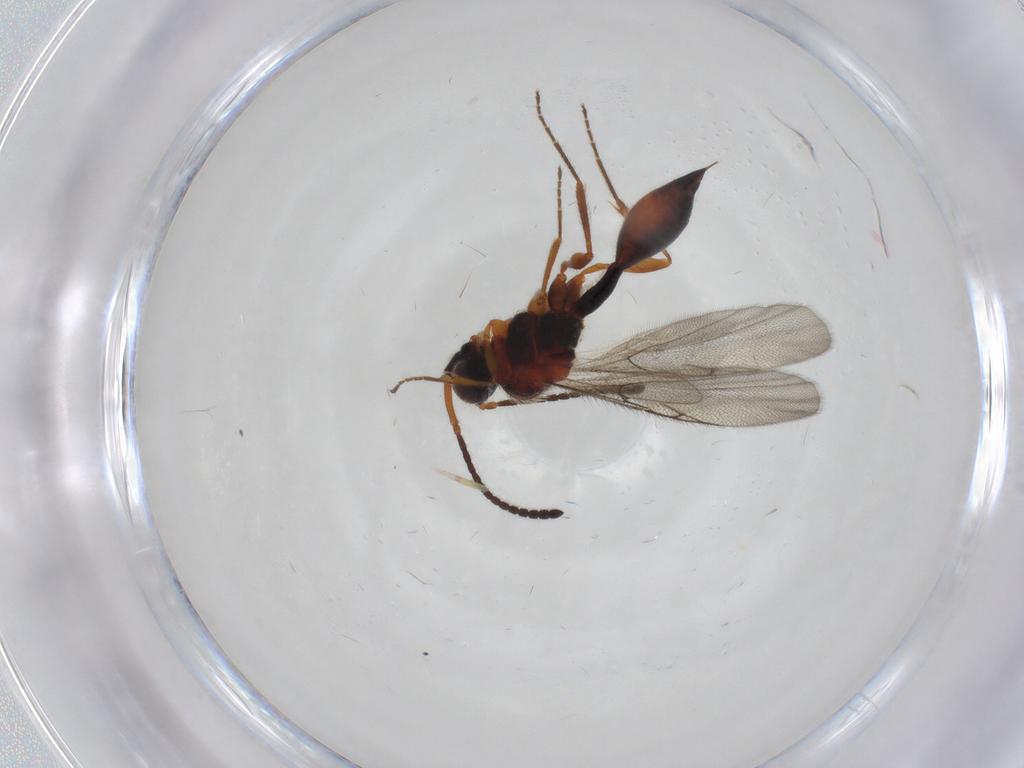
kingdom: Animalia
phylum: Arthropoda
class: Insecta
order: Hymenoptera
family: Diapriidae
